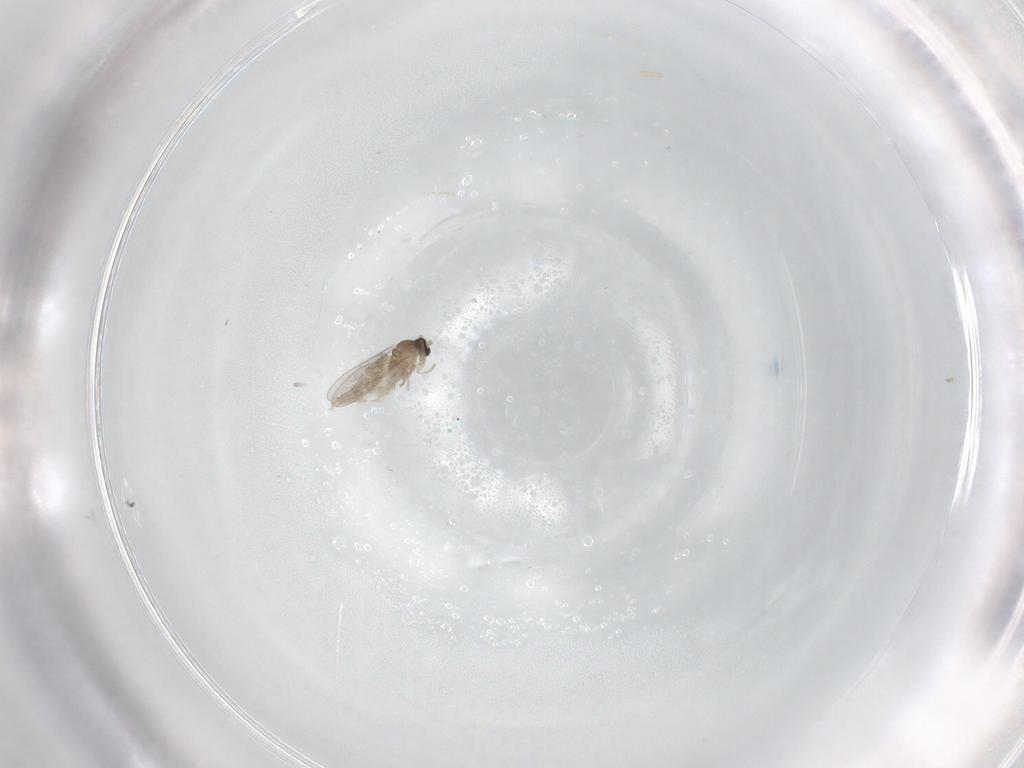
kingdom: Animalia
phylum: Arthropoda
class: Insecta
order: Diptera
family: Cecidomyiidae
